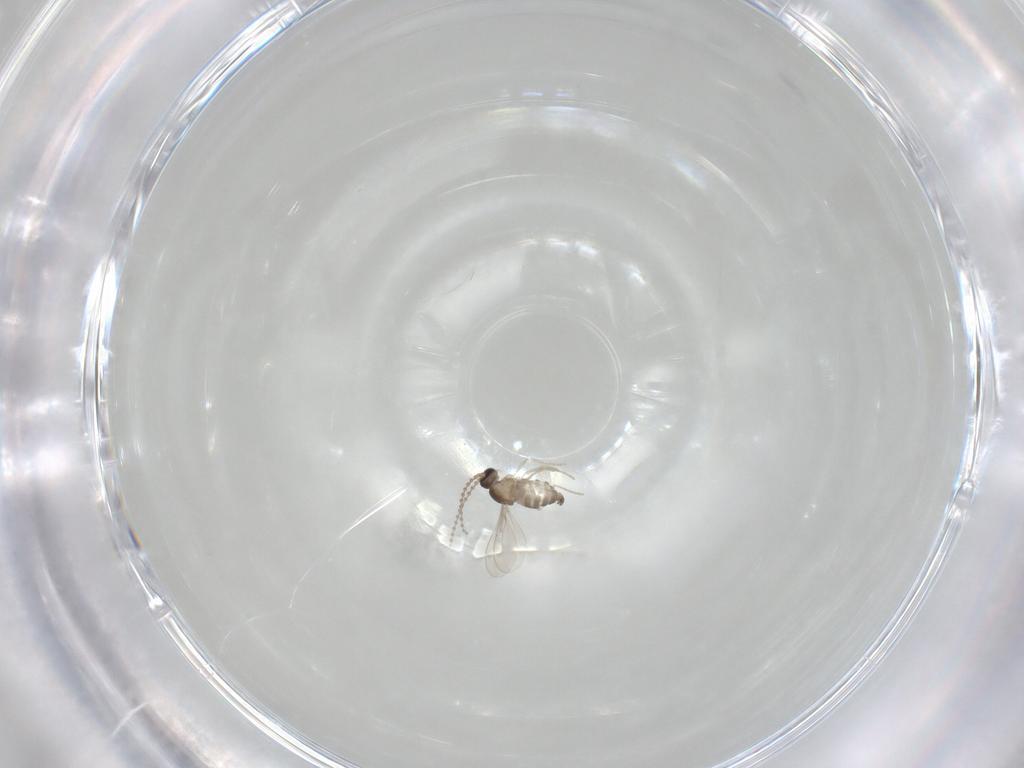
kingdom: Animalia
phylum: Arthropoda
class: Insecta
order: Diptera
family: Cecidomyiidae
